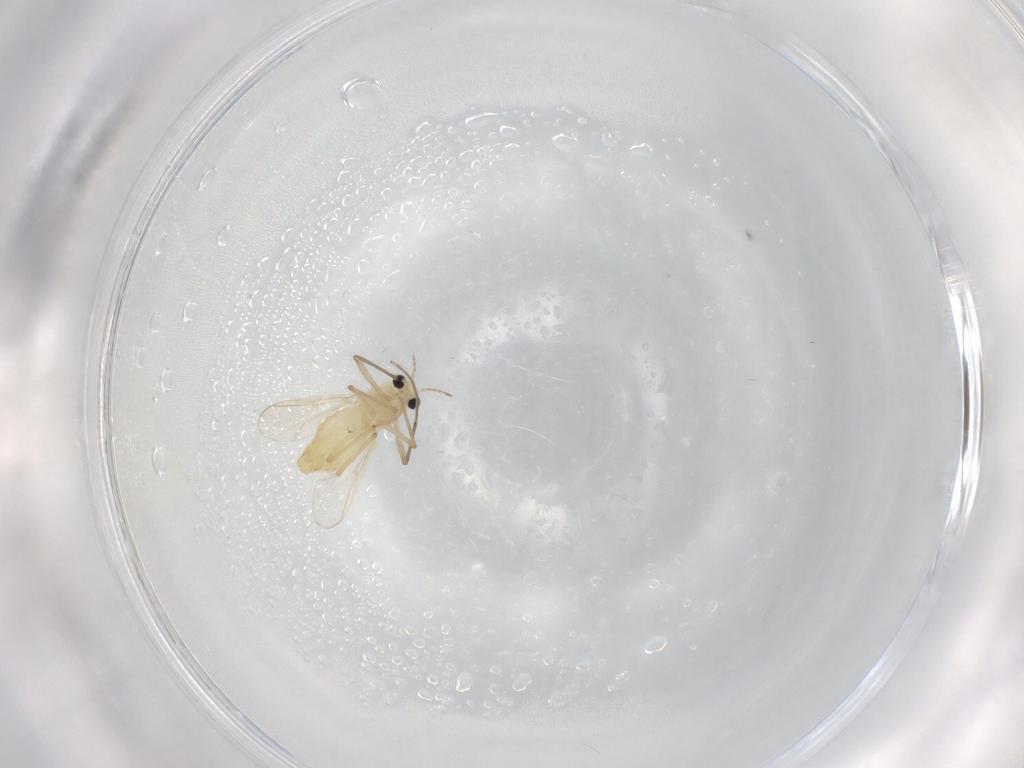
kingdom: Animalia
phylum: Arthropoda
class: Insecta
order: Diptera
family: Chironomidae
